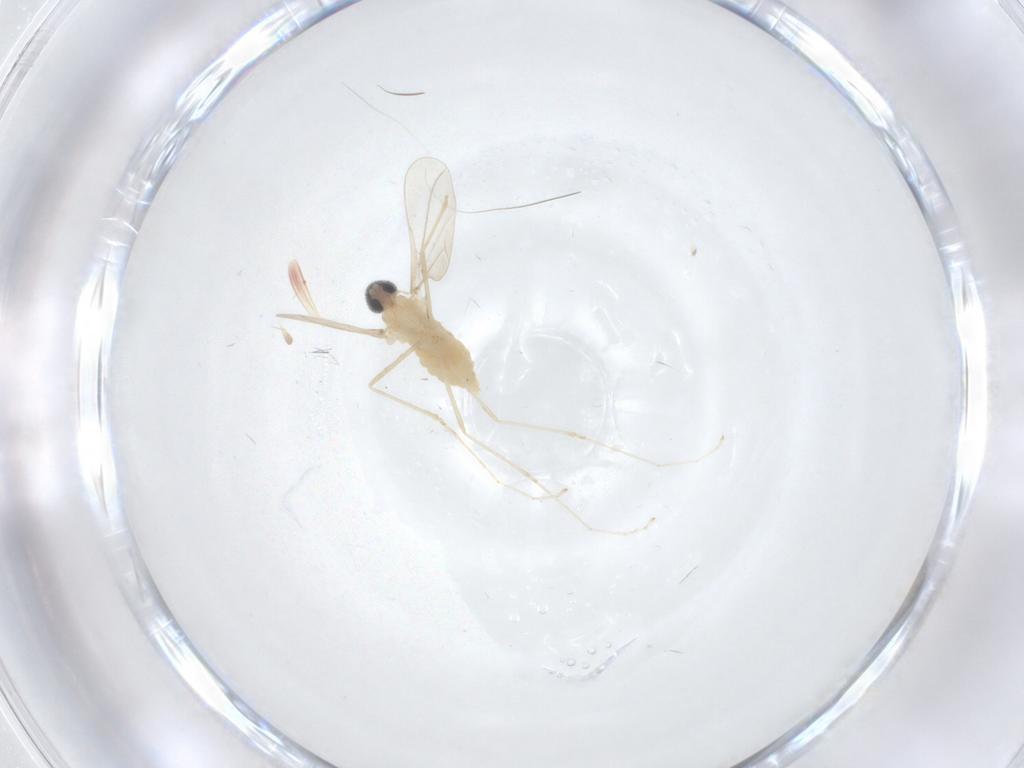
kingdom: Animalia
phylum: Arthropoda
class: Insecta
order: Diptera
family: Cecidomyiidae
